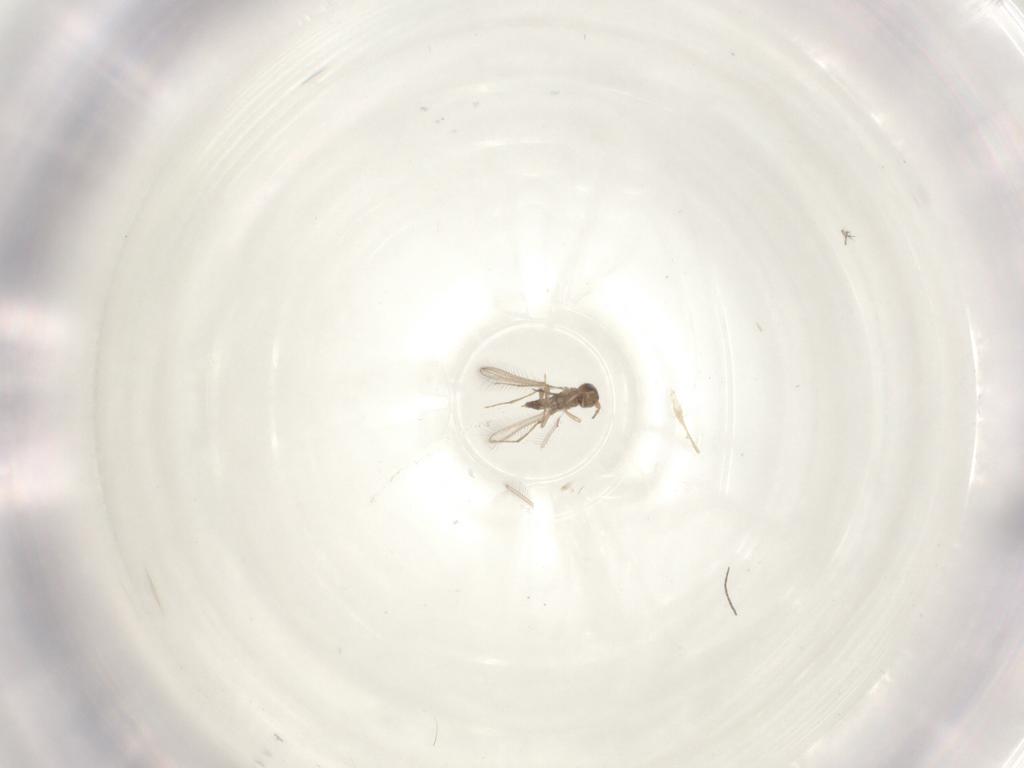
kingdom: Animalia
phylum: Arthropoda
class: Insecta
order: Hymenoptera
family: Mymaridae
